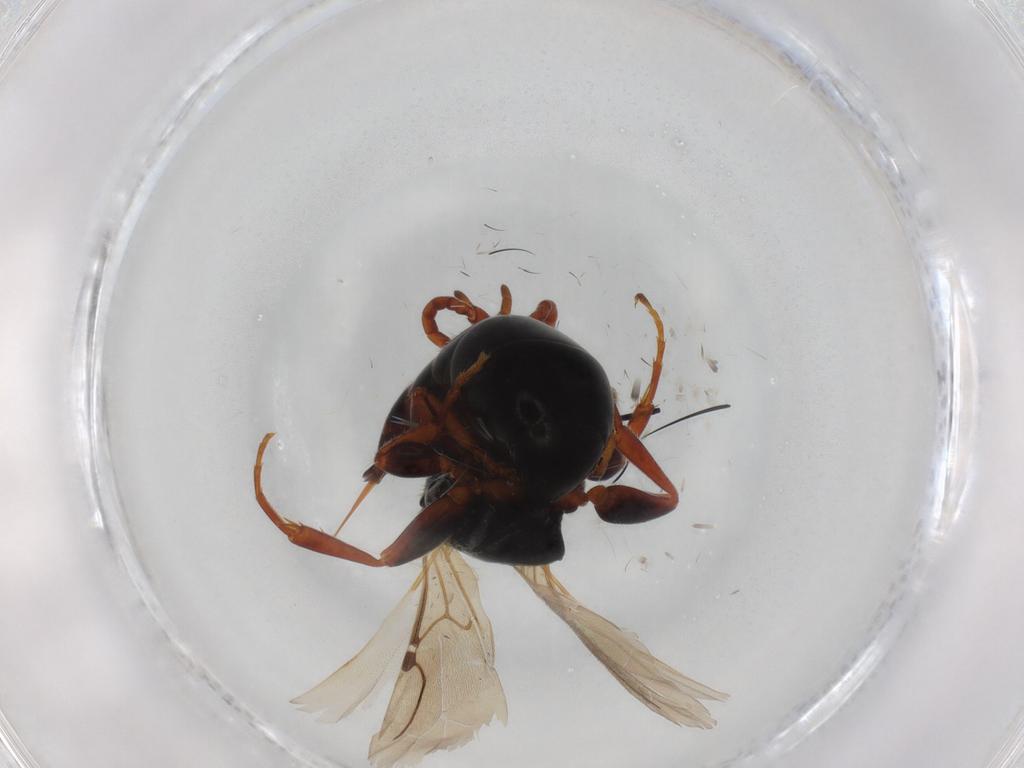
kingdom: Animalia
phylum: Arthropoda
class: Insecta
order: Hymenoptera
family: Bethylidae
